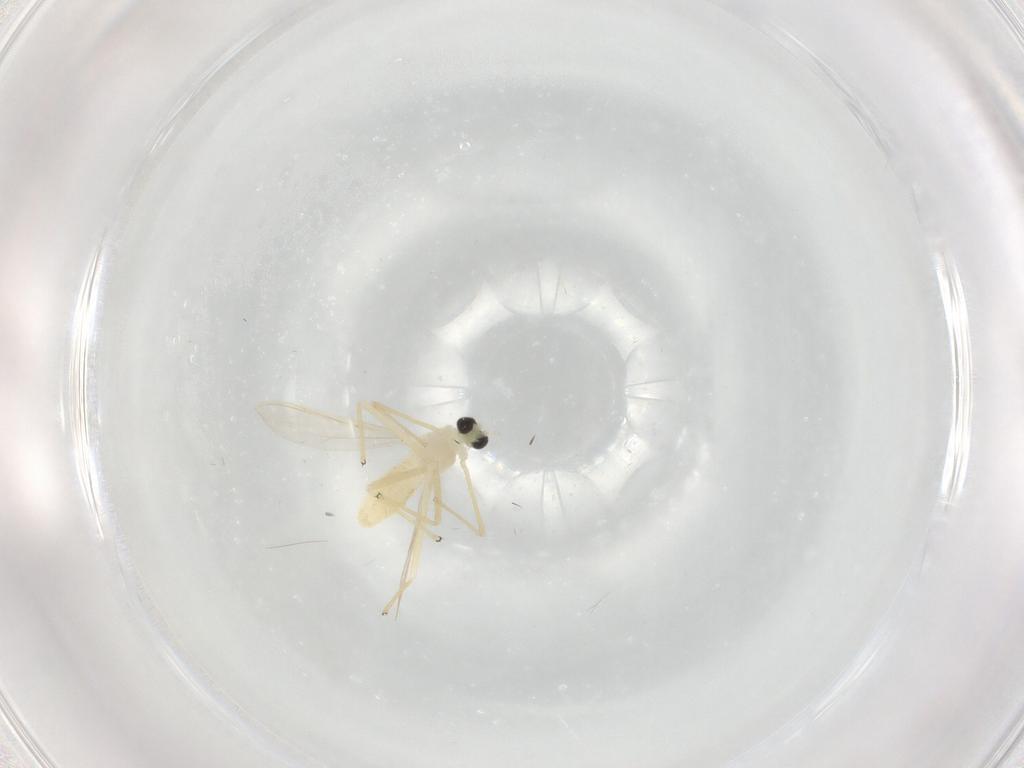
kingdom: Animalia
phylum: Arthropoda
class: Insecta
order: Diptera
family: Chironomidae
